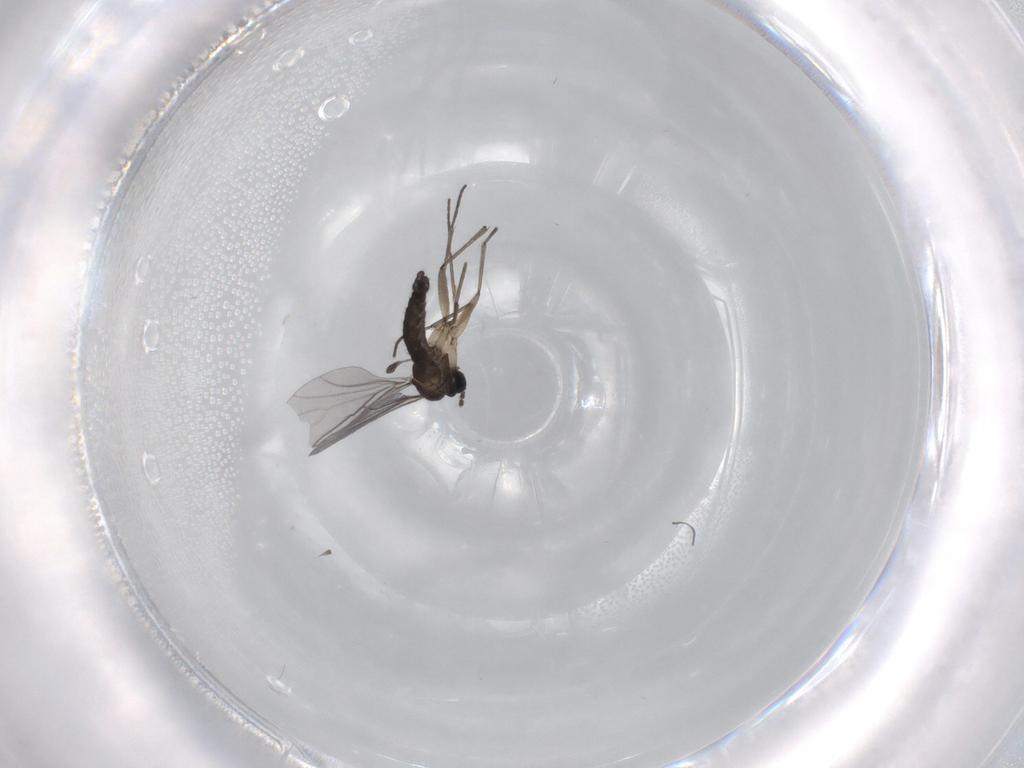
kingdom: Animalia
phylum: Arthropoda
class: Insecta
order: Diptera
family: Sciaridae
